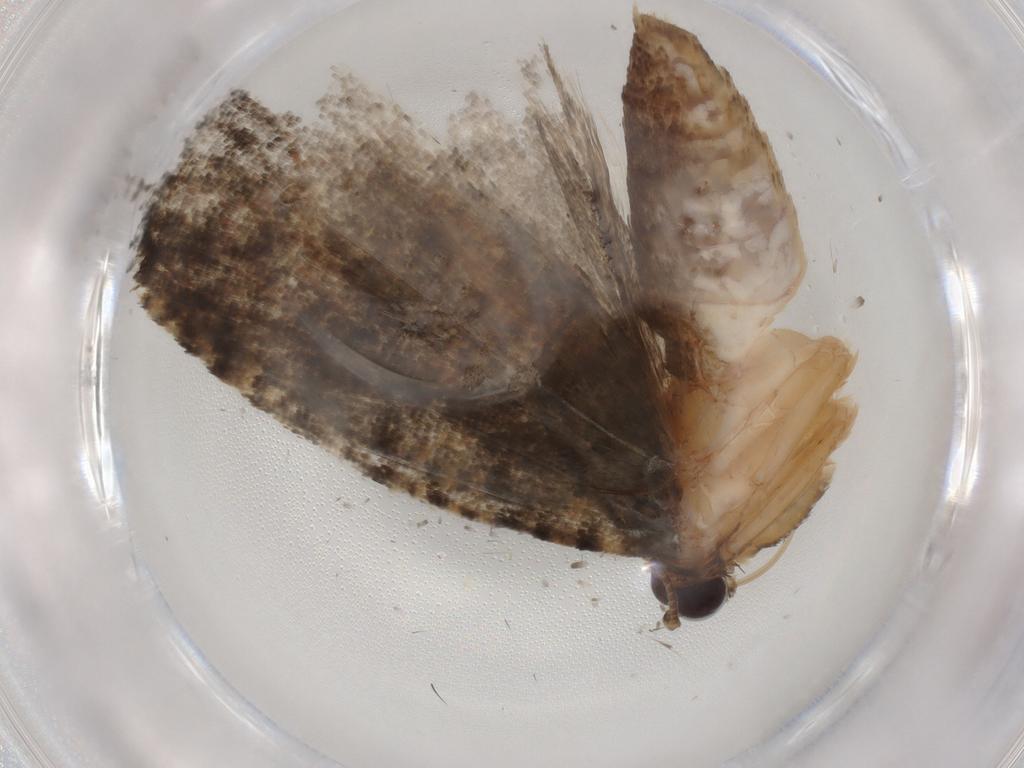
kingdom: Animalia
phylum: Arthropoda
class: Insecta
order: Lepidoptera
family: Tortricidae
